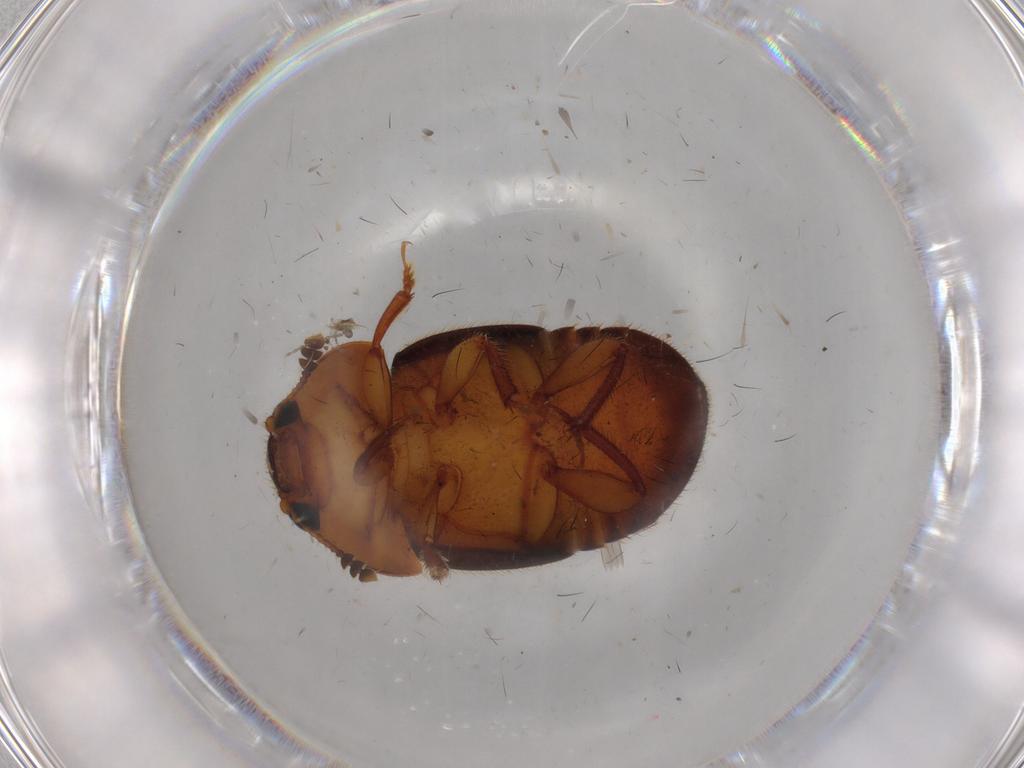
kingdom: Animalia
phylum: Arthropoda
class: Insecta
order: Coleoptera
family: Nitidulidae
